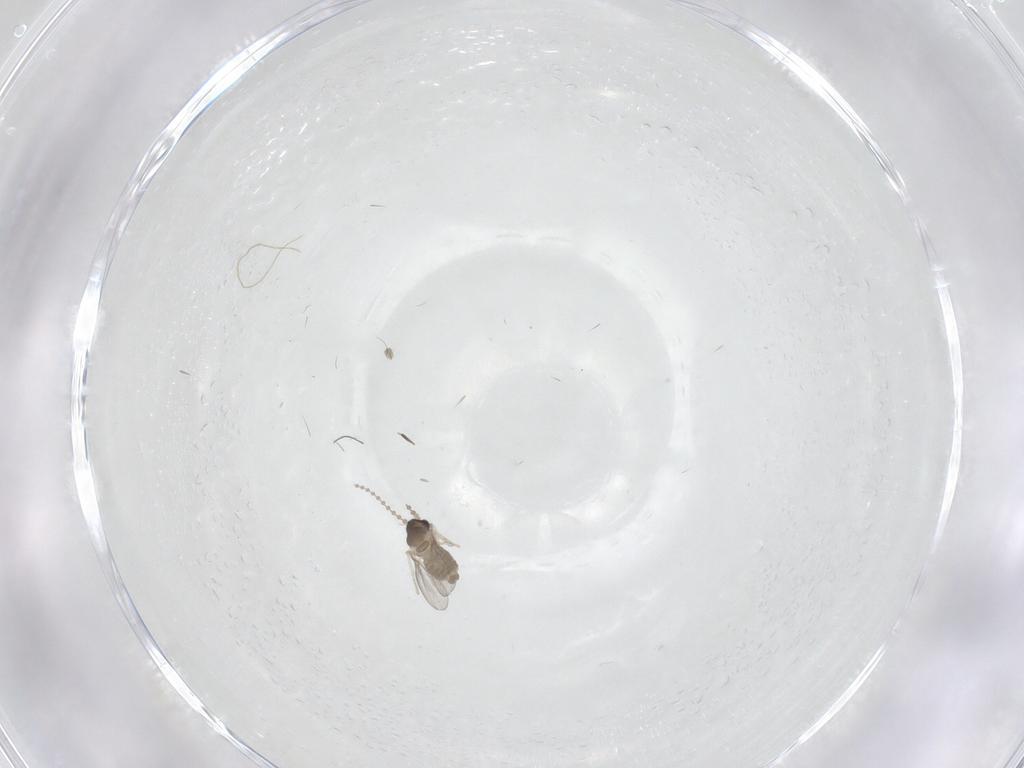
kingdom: Animalia
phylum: Arthropoda
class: Insecta
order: Diptera
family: Cecidomyiidae
